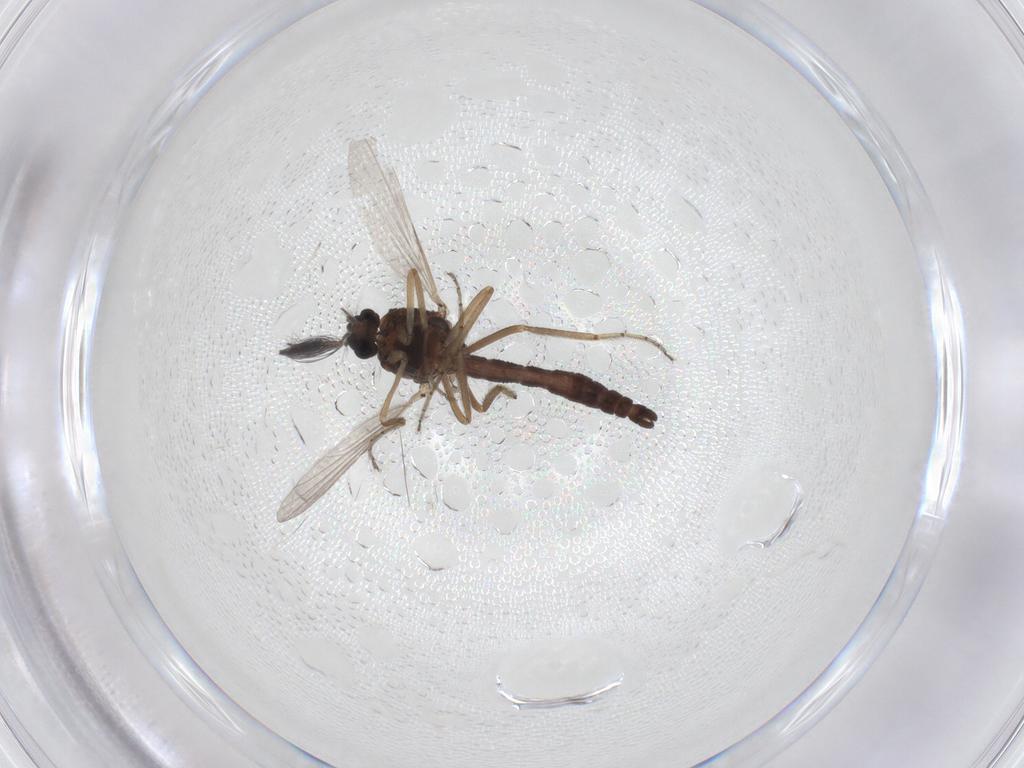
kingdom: Animalia
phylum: Arthropoda
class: Insecta
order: Diptera
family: Ceratopogonidae
